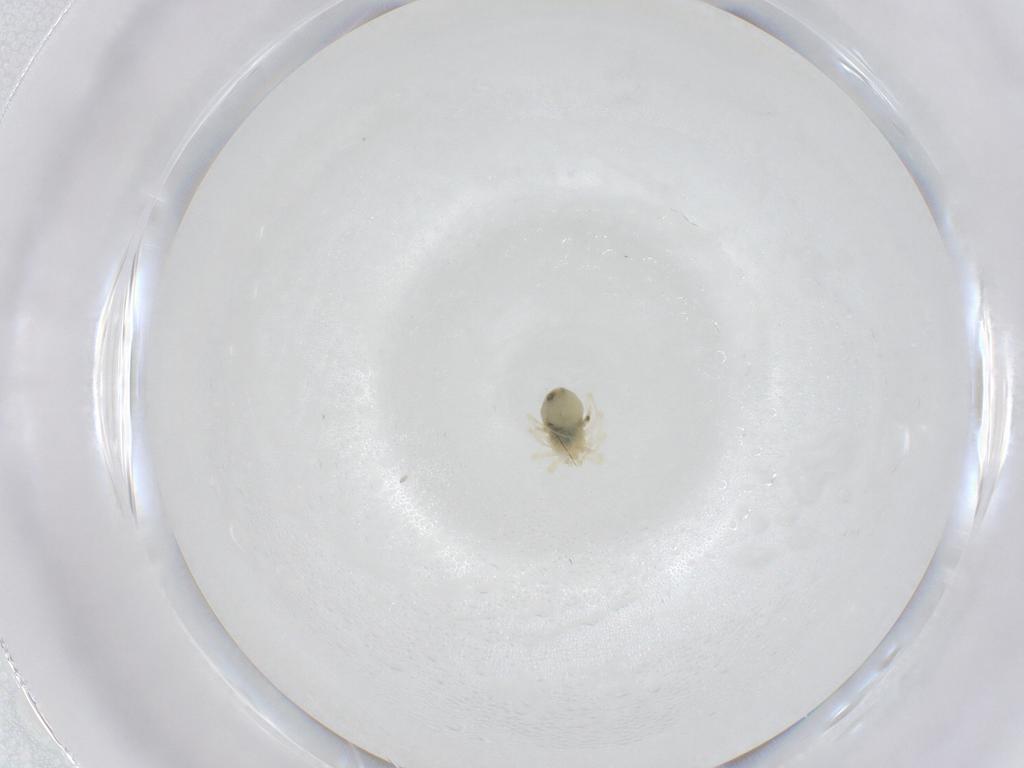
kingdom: Animalia
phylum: Arthropoda
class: Arachnida
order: Trombidiformes
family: Anystidae
